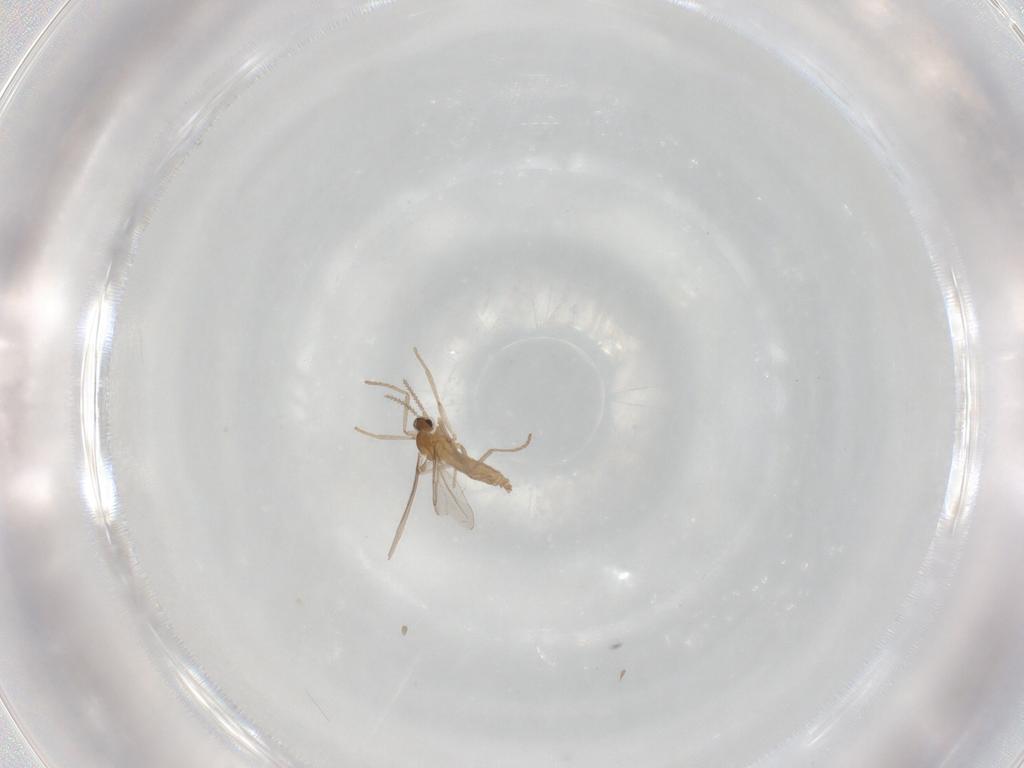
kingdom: Animalia
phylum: Arthropoda
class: Insecta
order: Diptera
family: Cecidomyiidae
